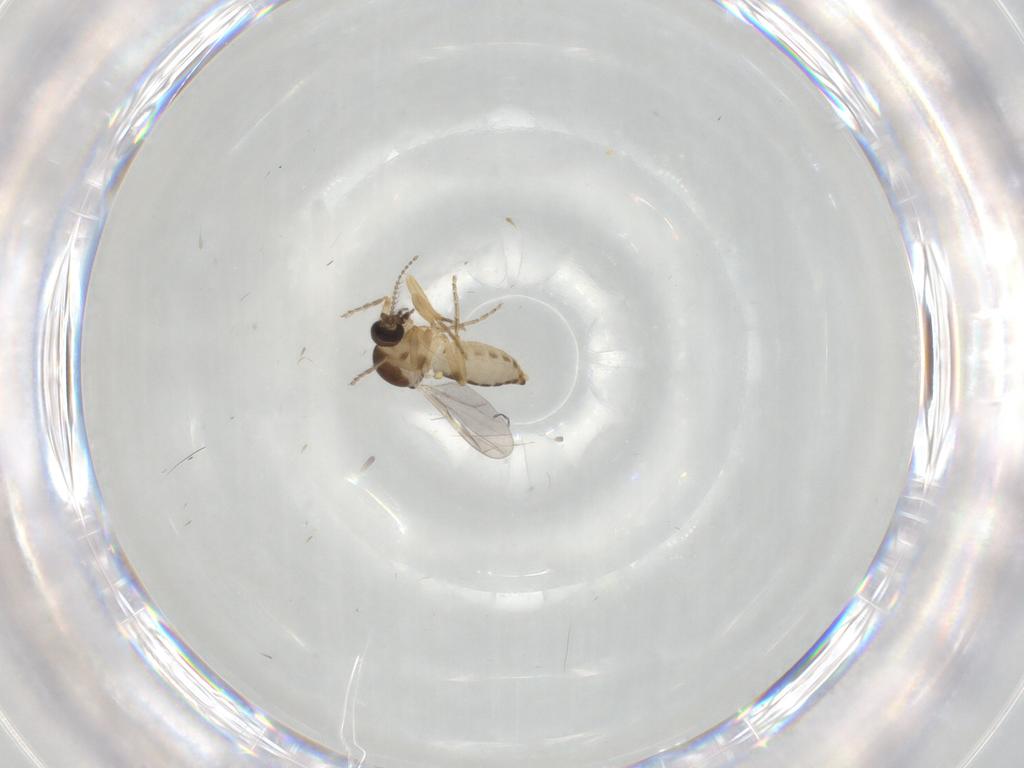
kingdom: Animalia
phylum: Arthropoda
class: Insecta
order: Diptera
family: Ceratopogonidae
